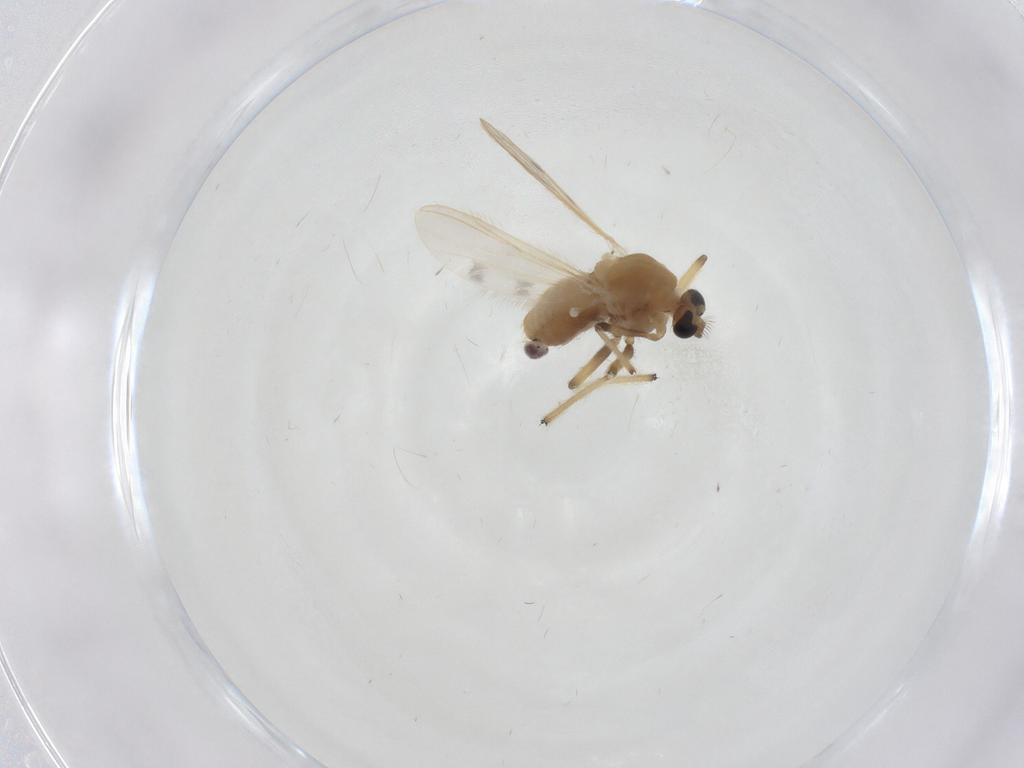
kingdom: Animalia
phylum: Arthropoda
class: Insecta
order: Diptera
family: Chironomidae
